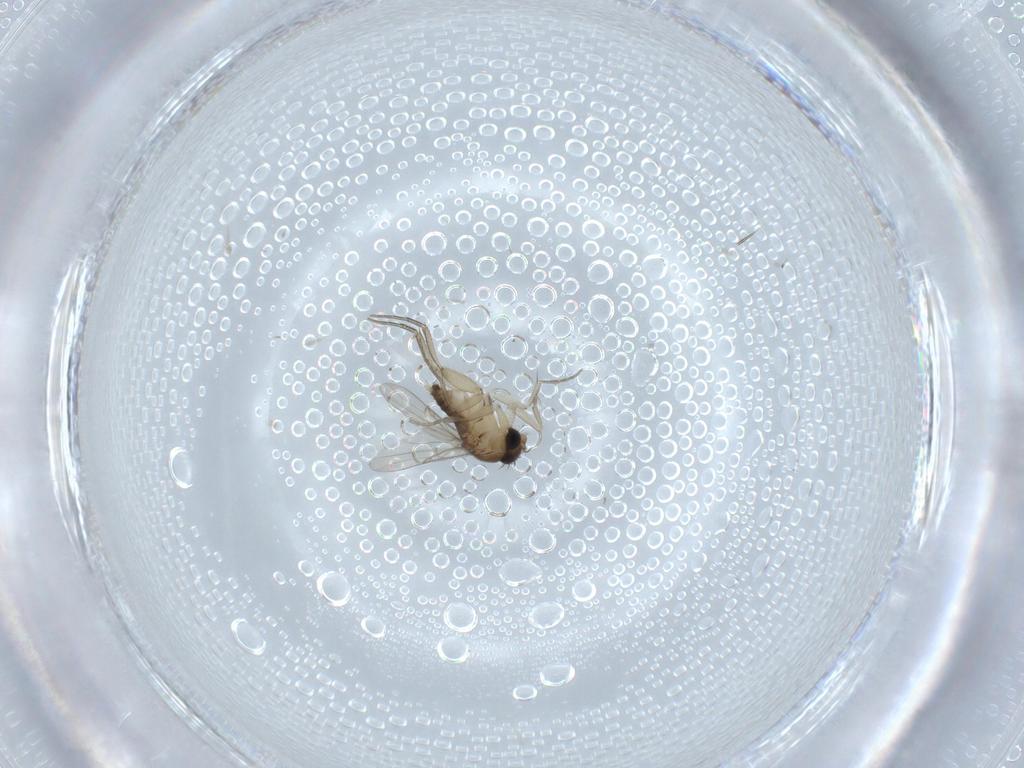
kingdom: Animalia
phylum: Arthropoda
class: Insecta
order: Diptera
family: Phoridae
